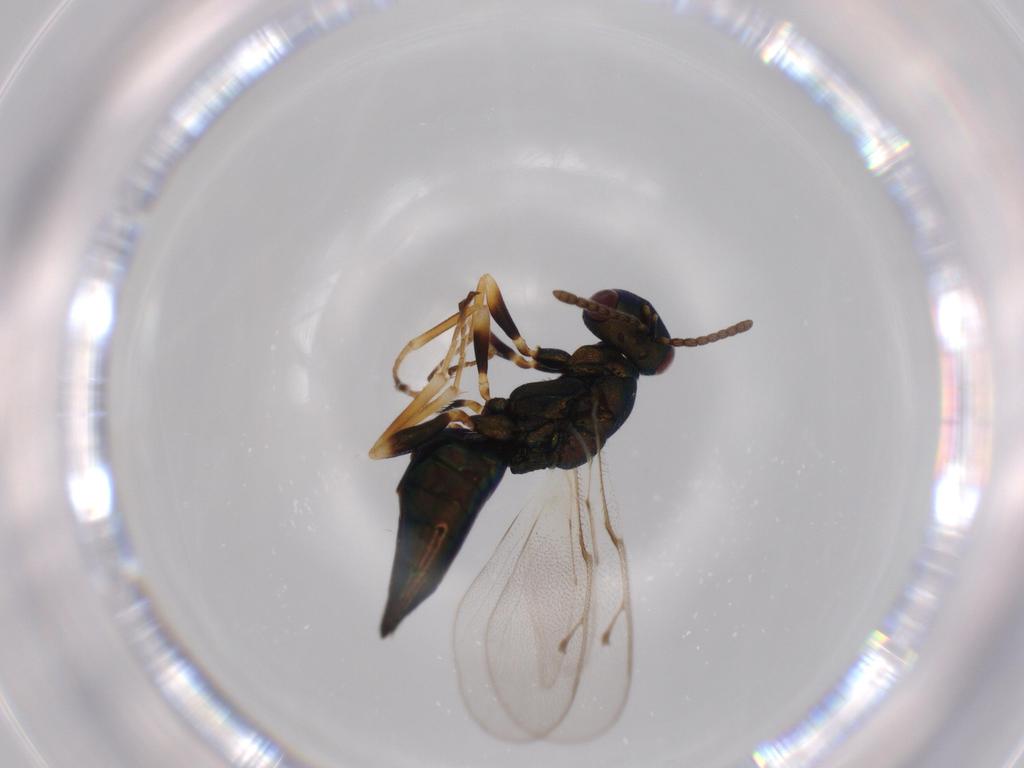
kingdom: Animalia
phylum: Arthropoda
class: Insecta
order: Hymenoptera
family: Ichneumonidae
